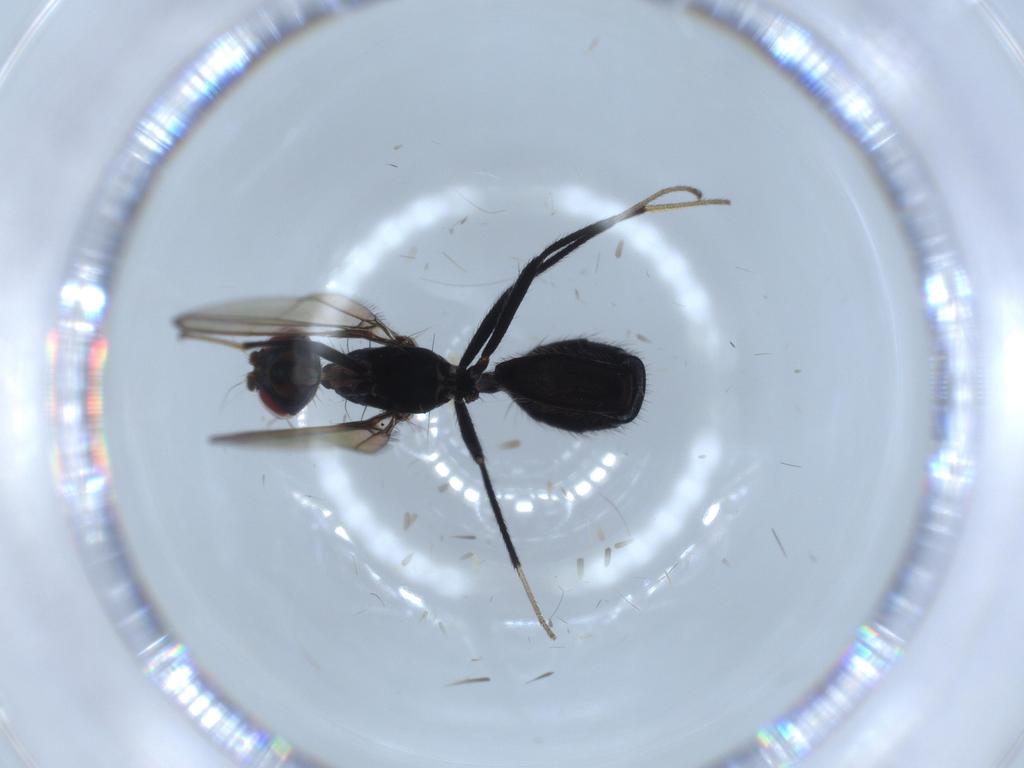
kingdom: Animalia
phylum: Arthropoda
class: Insecta
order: Diptera
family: Richardiidae
